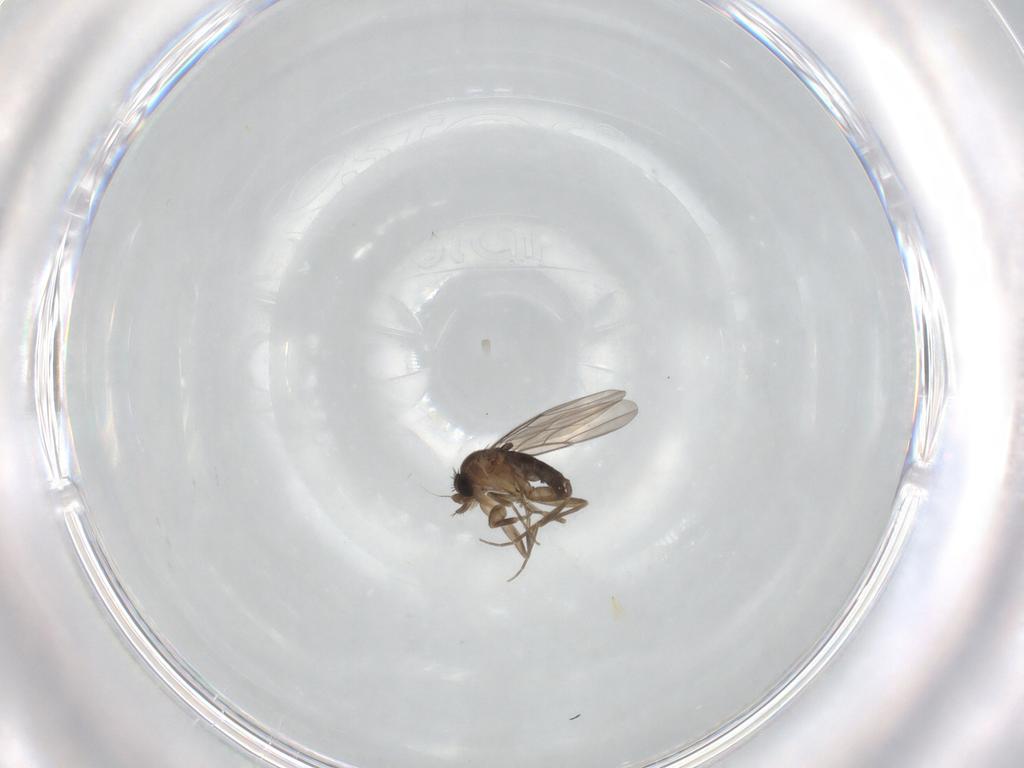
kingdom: Animalia
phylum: Arthropoda
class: Insecta
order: Diptera
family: Phoridae
